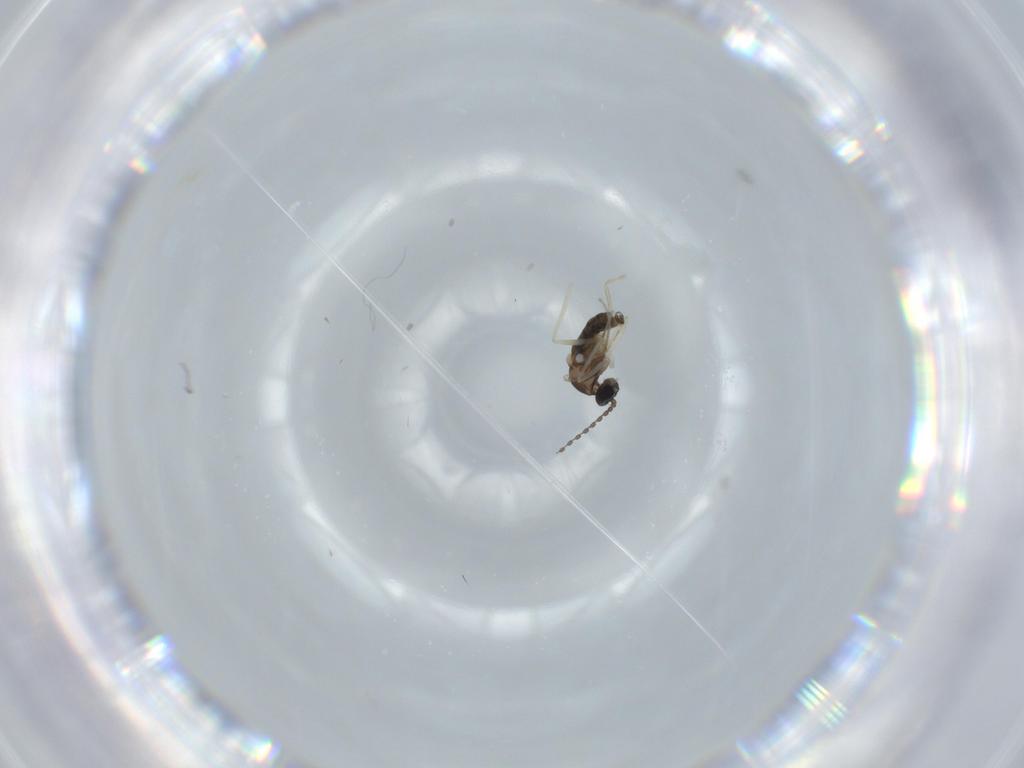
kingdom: Animalia
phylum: Arthropoda
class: Insecta
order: Diptera
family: Cecidomyiidae
